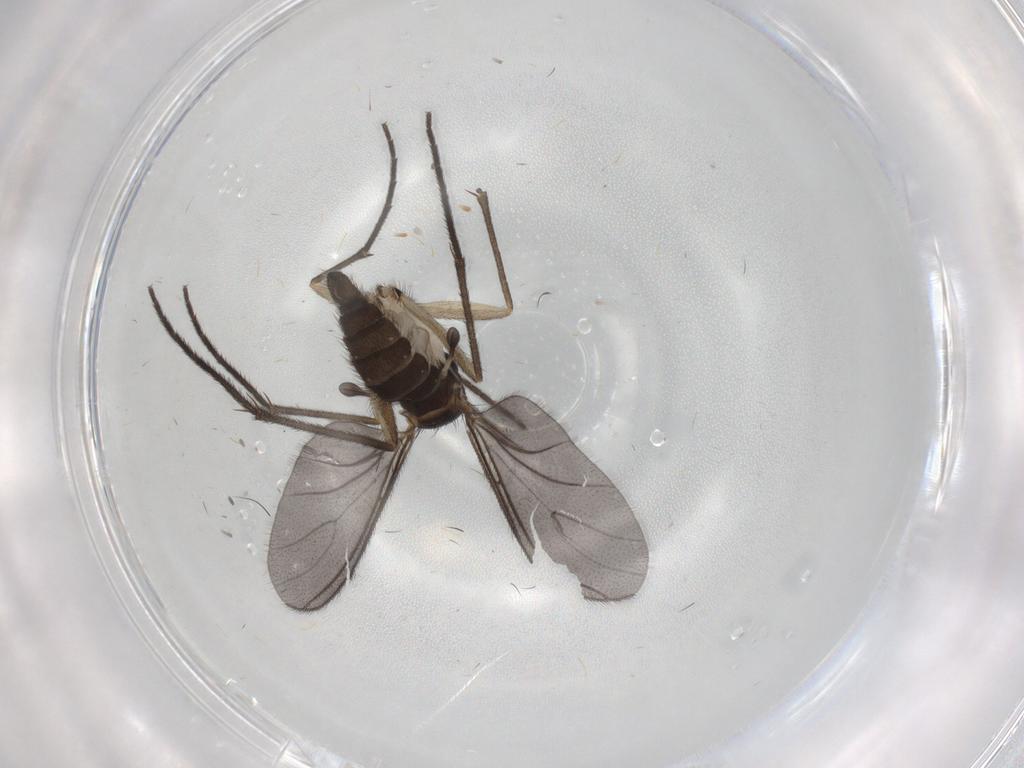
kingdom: Animalia
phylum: Arthropoda
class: Insecta
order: Diptera
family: Sciaridae
